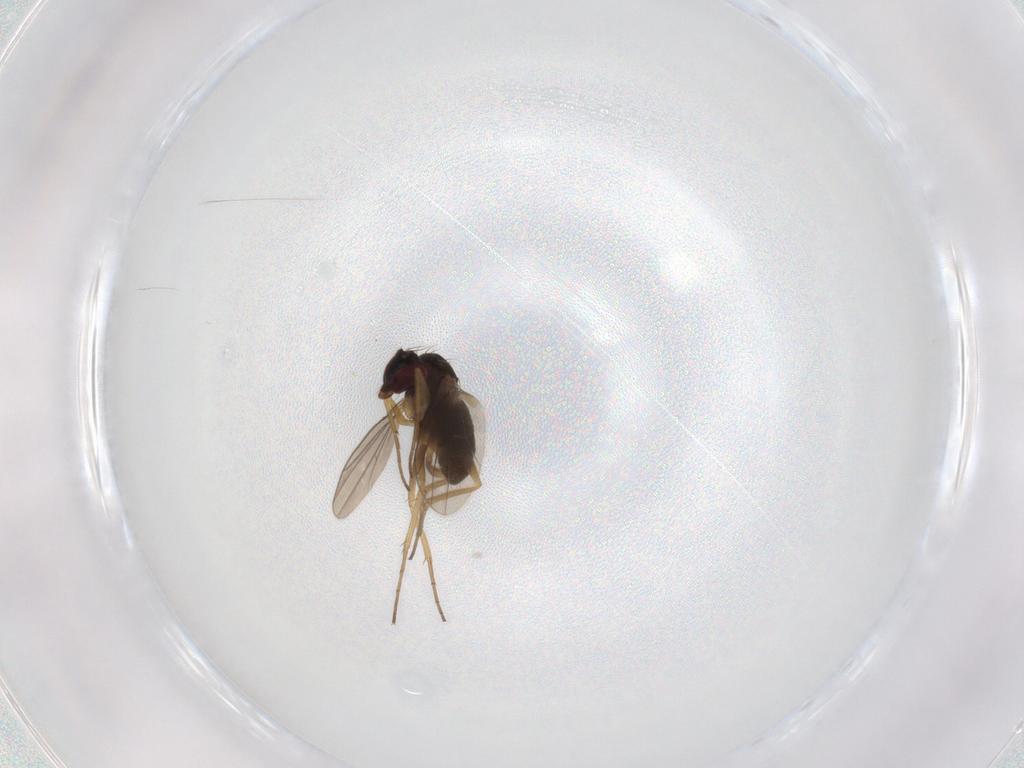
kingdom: Animalia
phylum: Arthropoda
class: Insecta
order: Diptera
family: Dolichopodidae
